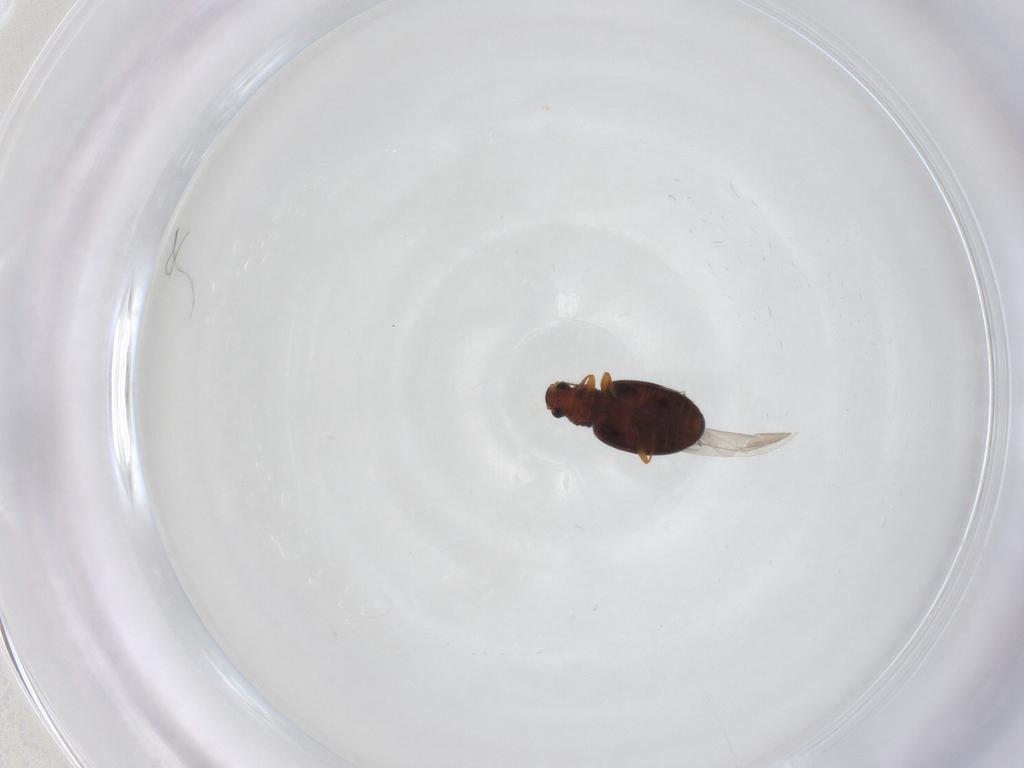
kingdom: Animalia
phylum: Arthropoda
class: Insecta
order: Coleoptera
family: Latridiidae
